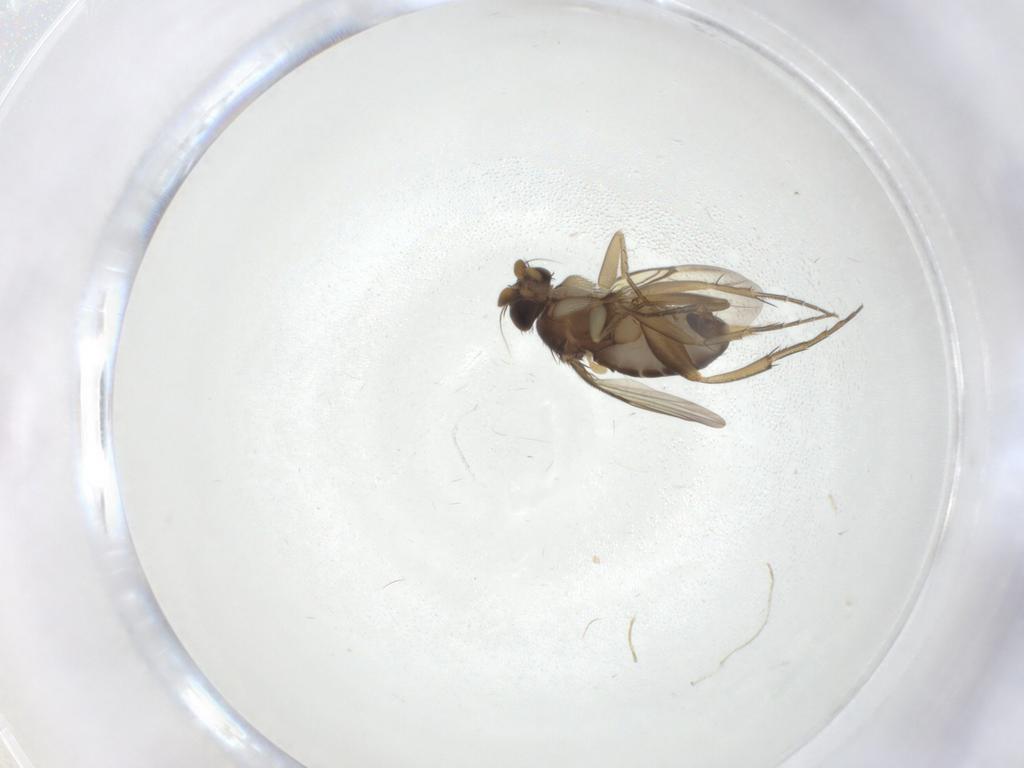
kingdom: Animalia
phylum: Arthropoda
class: Insecta
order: Diptera
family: Phoridae
